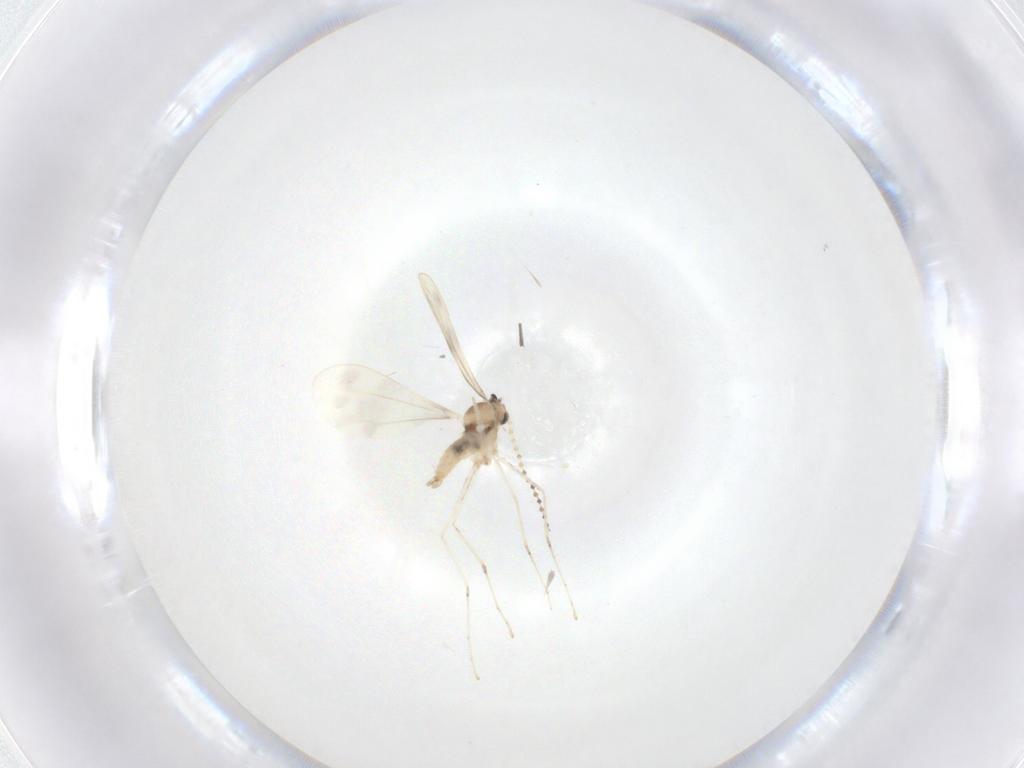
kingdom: Animalia
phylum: Arthropoda
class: Insecta
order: Diptera
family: Cecidomyiidae
